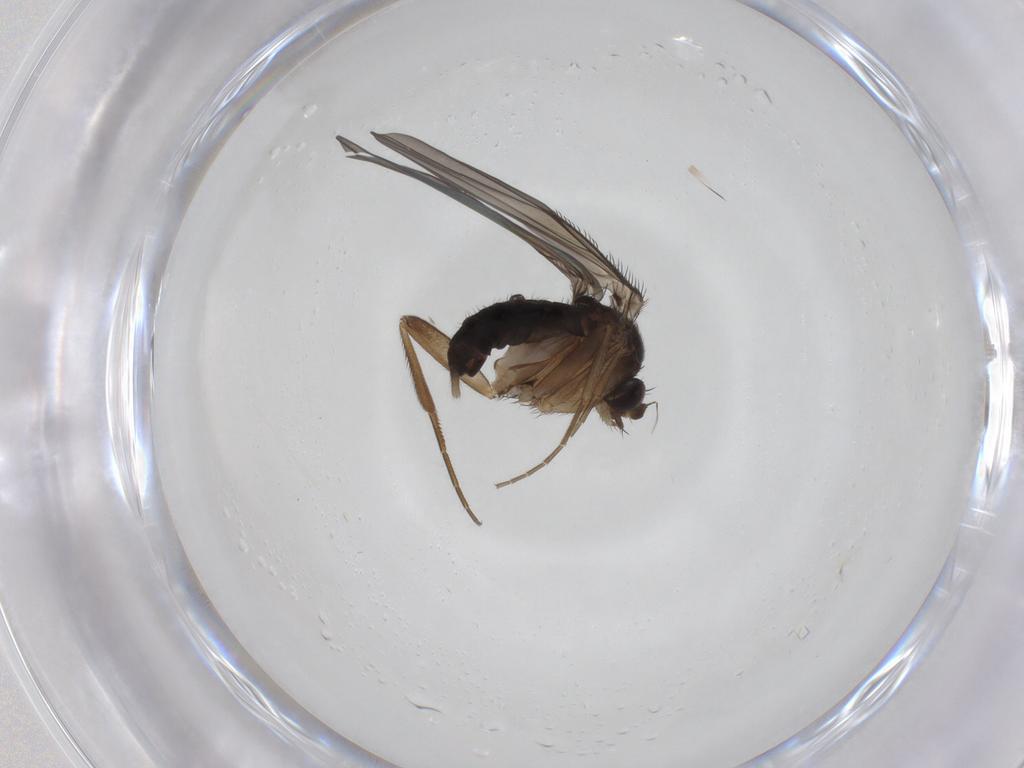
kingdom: Animalia
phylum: Arthropoda
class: Insecta
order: Diptera
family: Phoridae
